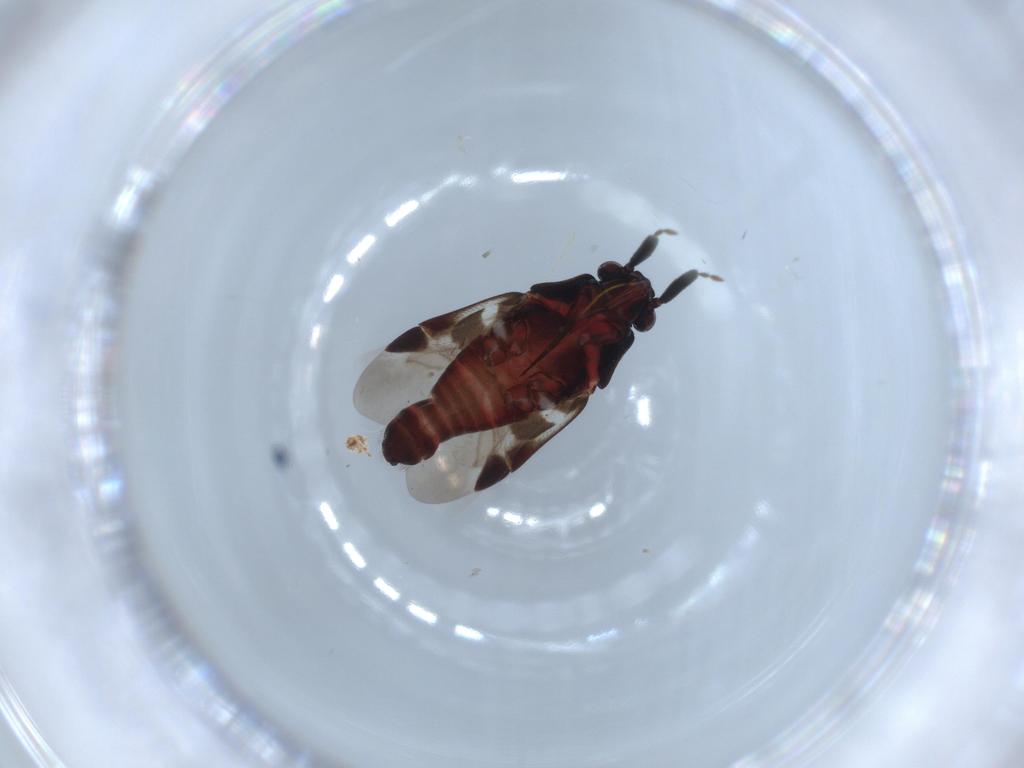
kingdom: Animalia
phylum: Arthropoda
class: Insecta
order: Hemiptera
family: Miridae
